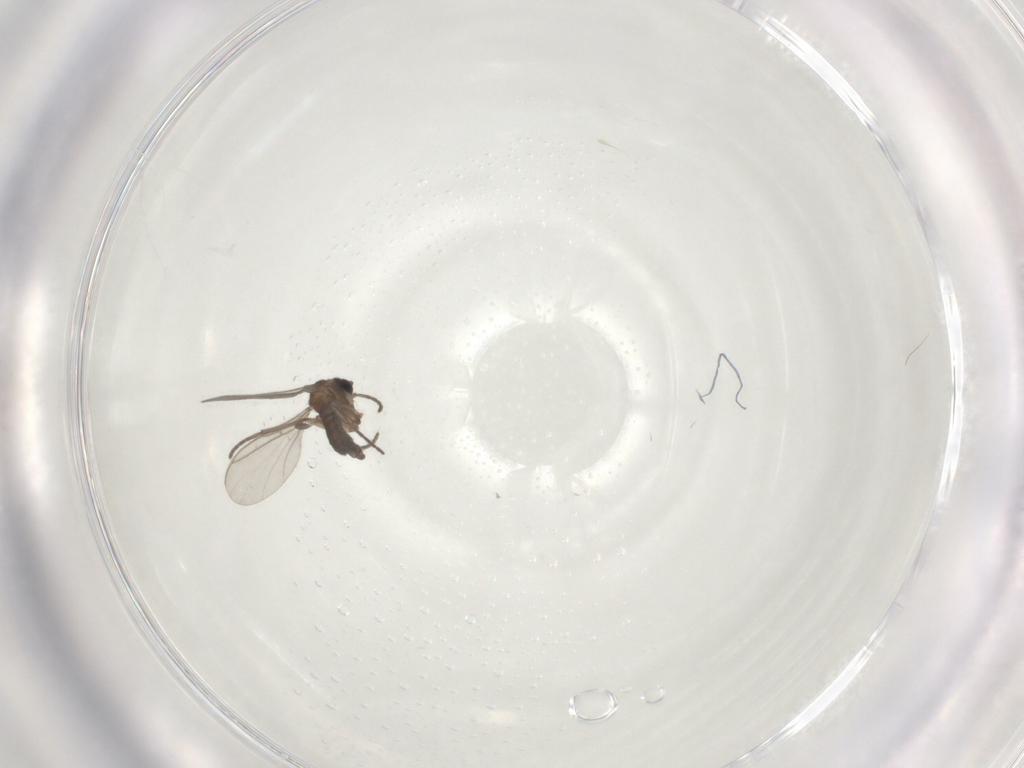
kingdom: Animalia
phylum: Arthropoda
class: Insecta
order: Diptera
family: Sciaridae
